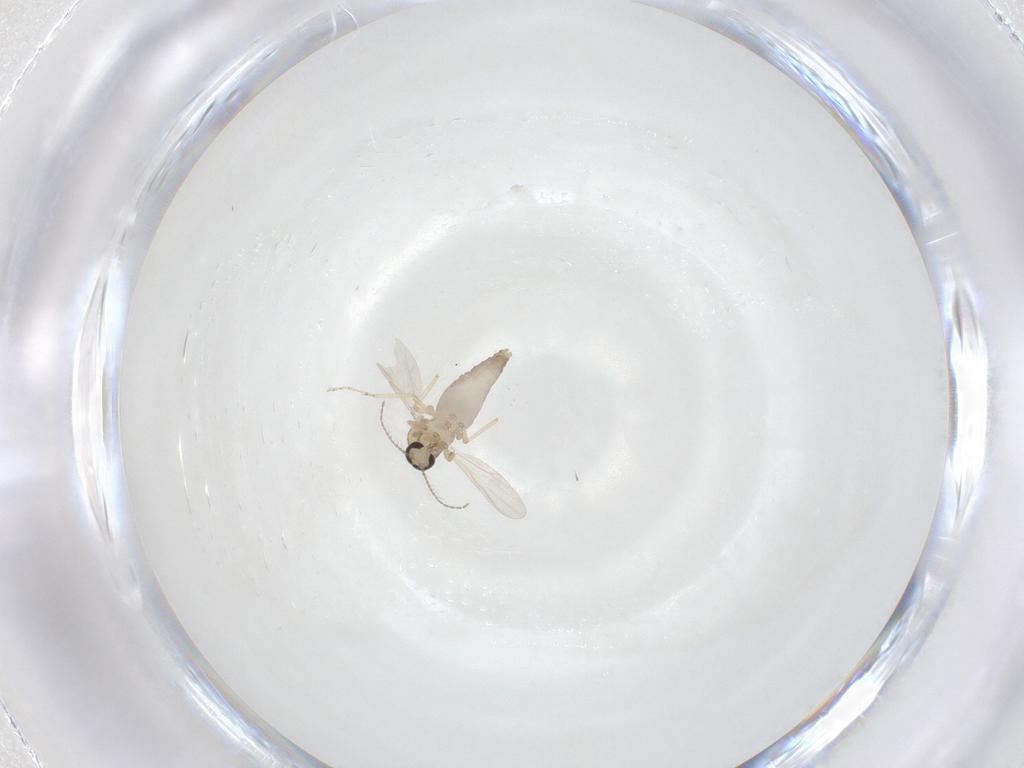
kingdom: Animalia
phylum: Arthropoda
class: Insecta
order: Diptera
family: Ceratopogonidae
